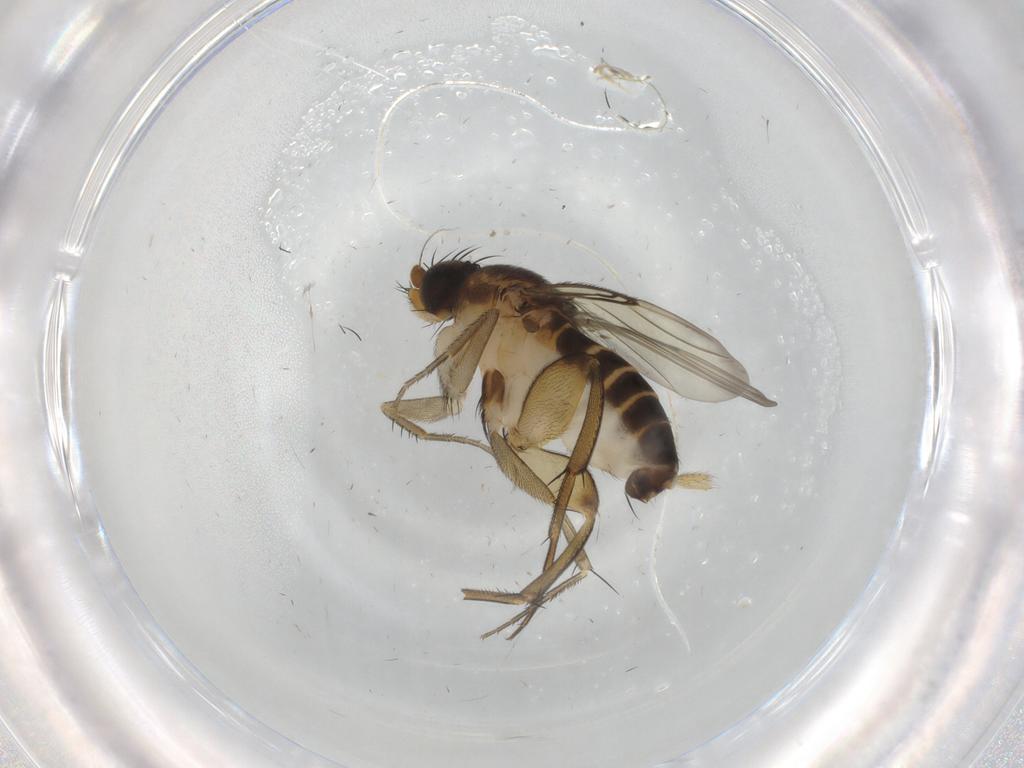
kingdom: Animalia
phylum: Arthropoda
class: Insecta
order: Diptera
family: Phoridae
